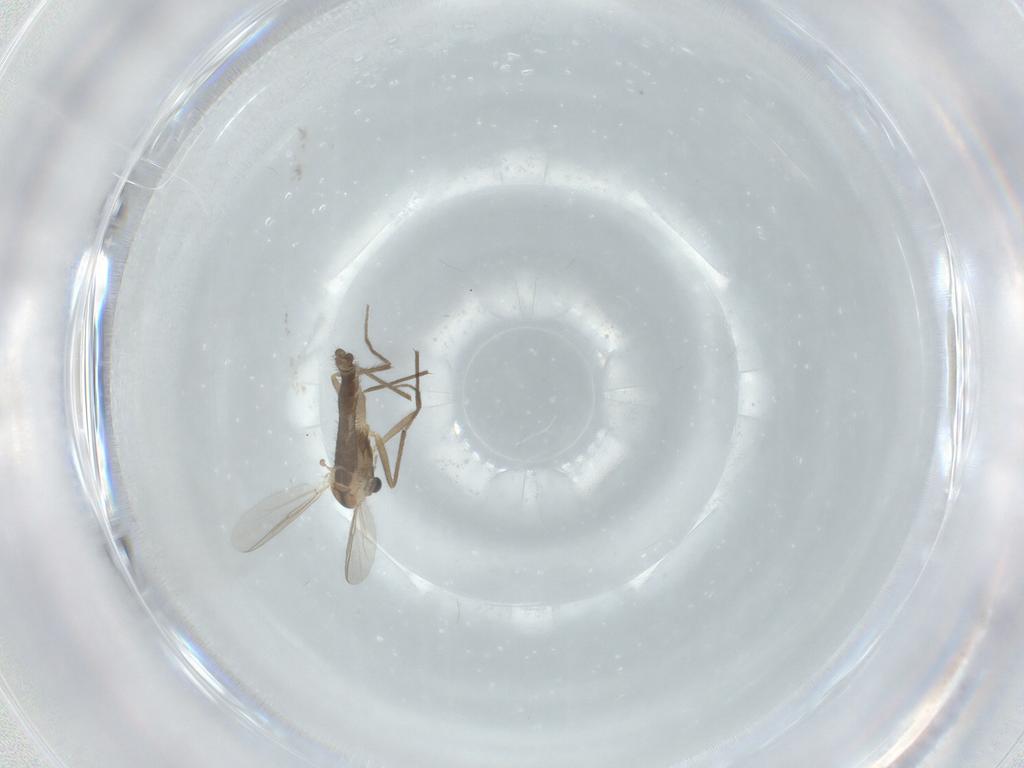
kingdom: Animalia
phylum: Arthropoda
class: Insecta
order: Diptera
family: Chironomidae
